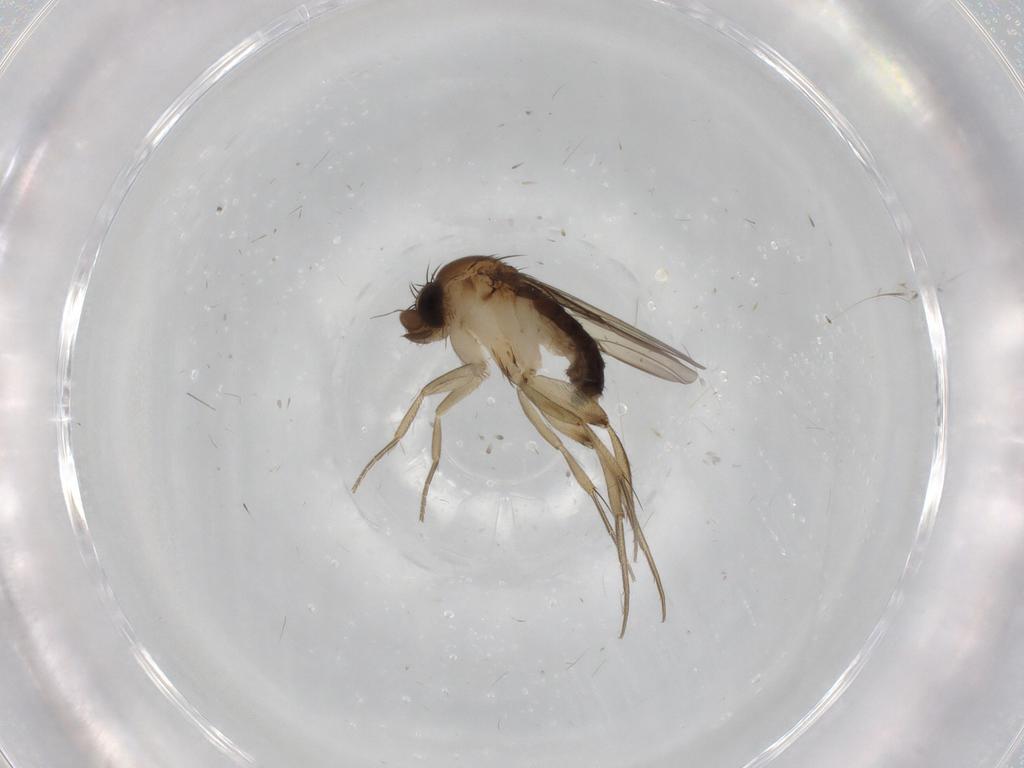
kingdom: Animalia
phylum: Arthropoda
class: Insecta
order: Diptera
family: Phoridae
